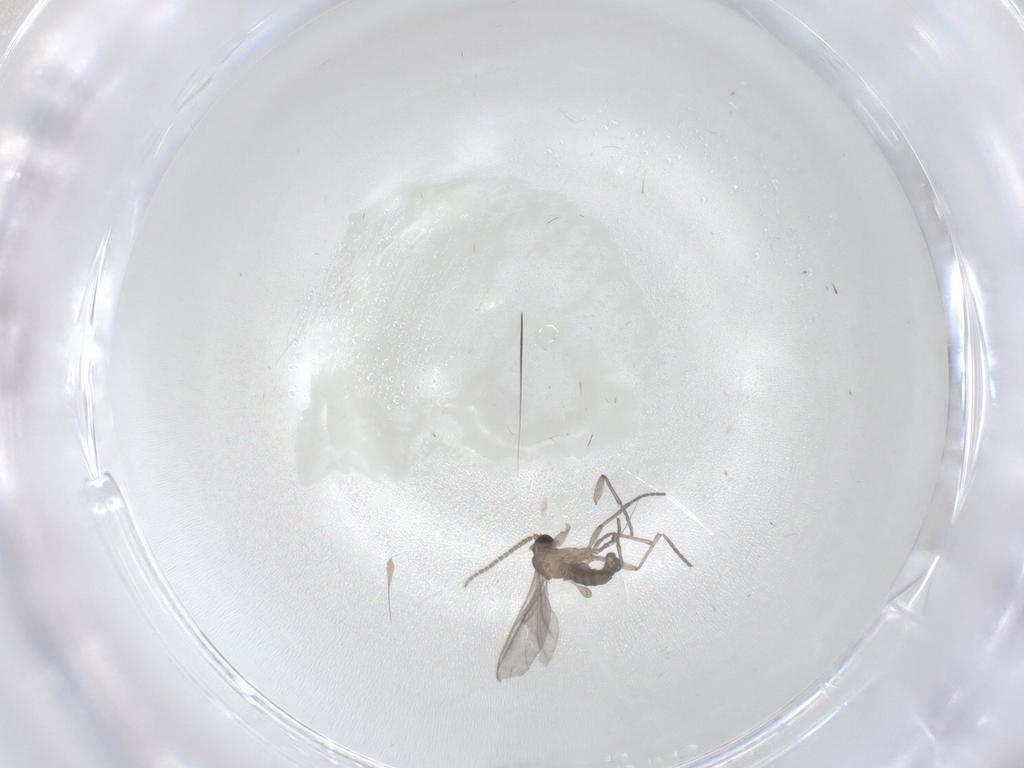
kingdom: Animalia
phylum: Arthropoda
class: Insecta
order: Diptera
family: Sciaridae
